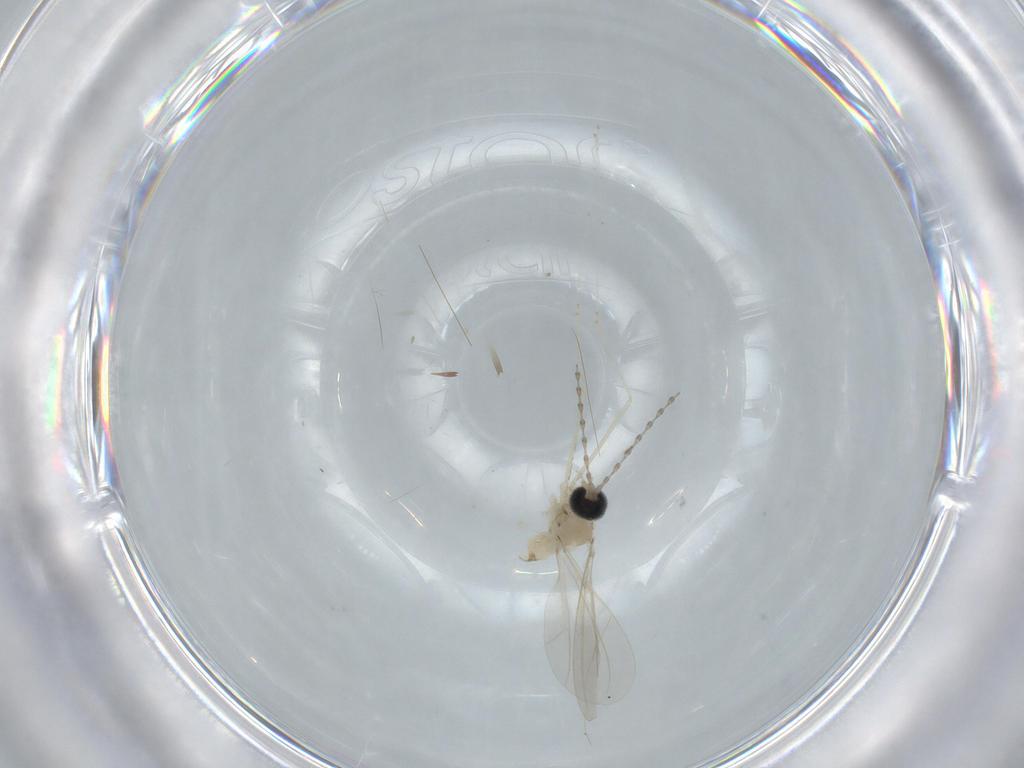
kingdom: Animalia
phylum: Arthropoda
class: Insecta
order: Diptera
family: Cecidomyiidae
